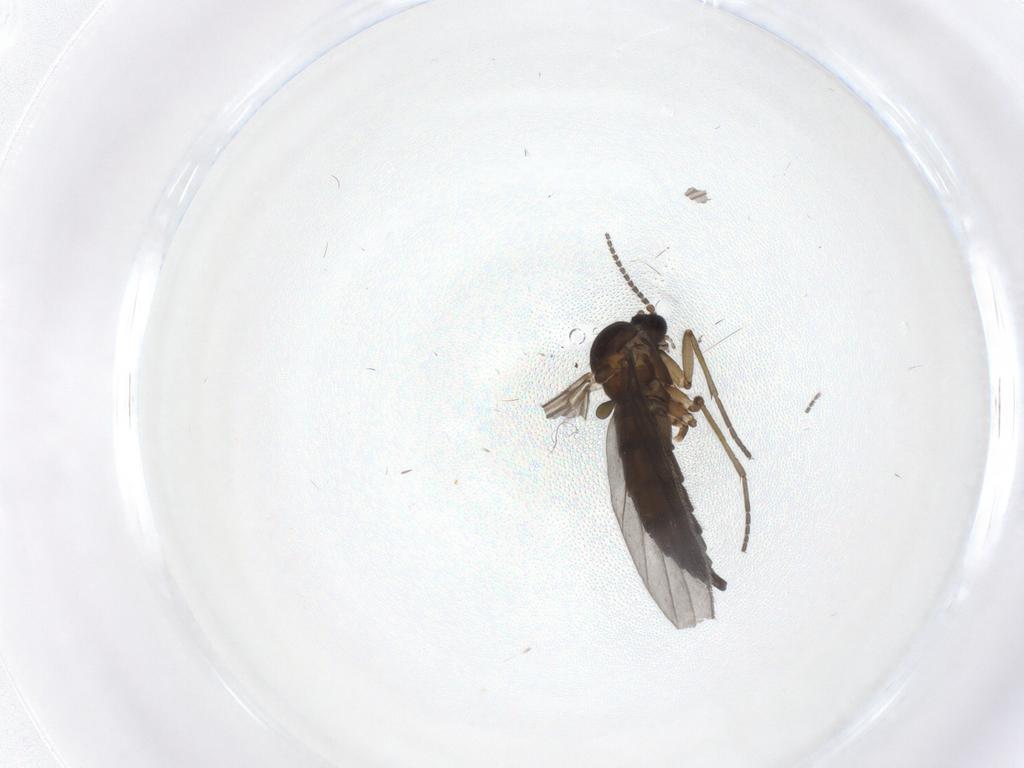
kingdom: Animalia
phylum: Arthropoda
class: Insecta
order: Diptera
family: Sciaridae
